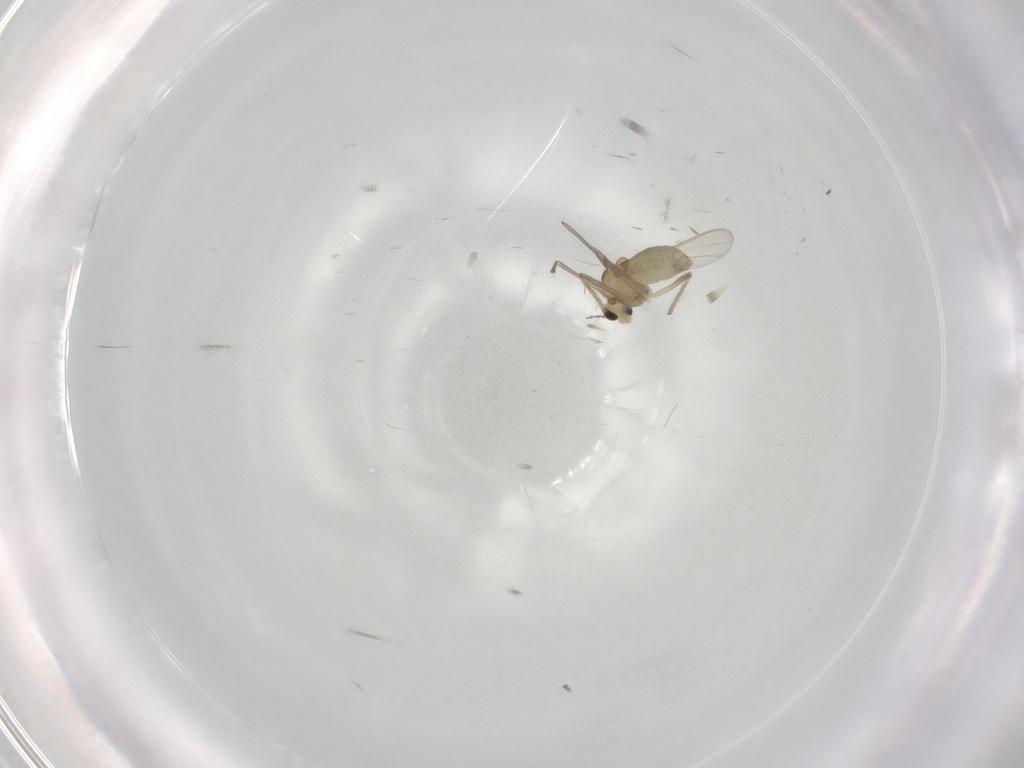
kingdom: Animalia
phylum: Arthropoda
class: Insecta
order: Diptera
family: Chironomidae
